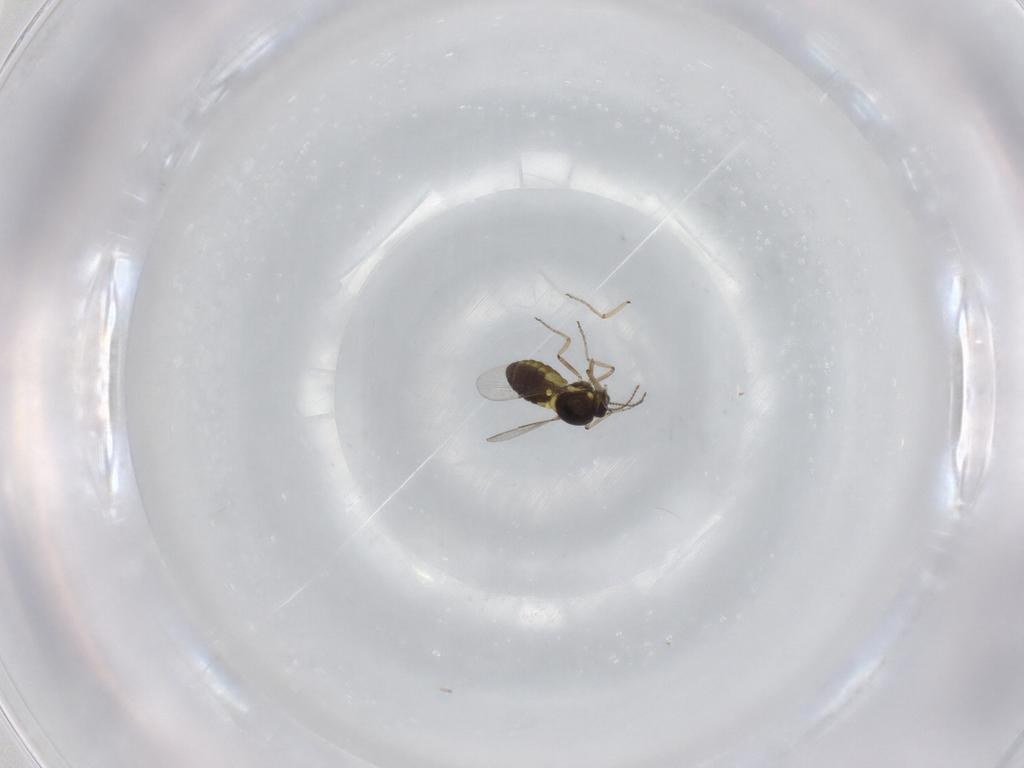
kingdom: Animalia
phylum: Arthropoda
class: Insecta
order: Diptera
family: Ceratopogonidae
